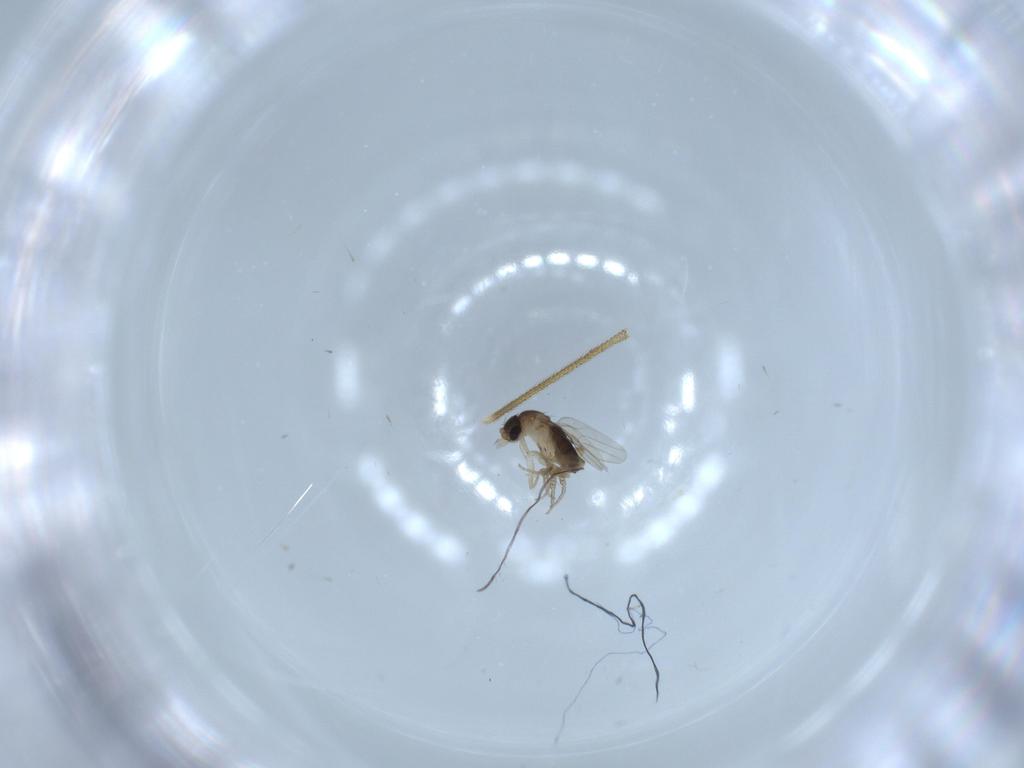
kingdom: Animalia
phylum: Arthropoda
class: Insecta
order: Diptera
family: Phoridae
